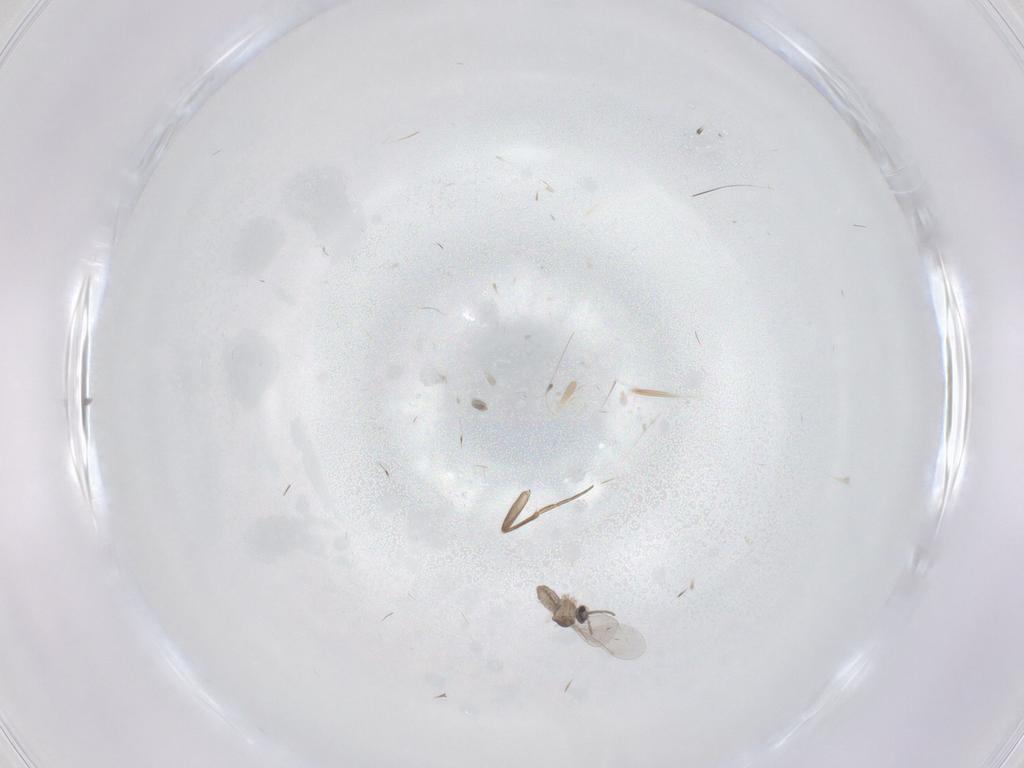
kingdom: Animalia
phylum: Arthropoda
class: Insecta
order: Diptera
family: Cecidomyiidae
